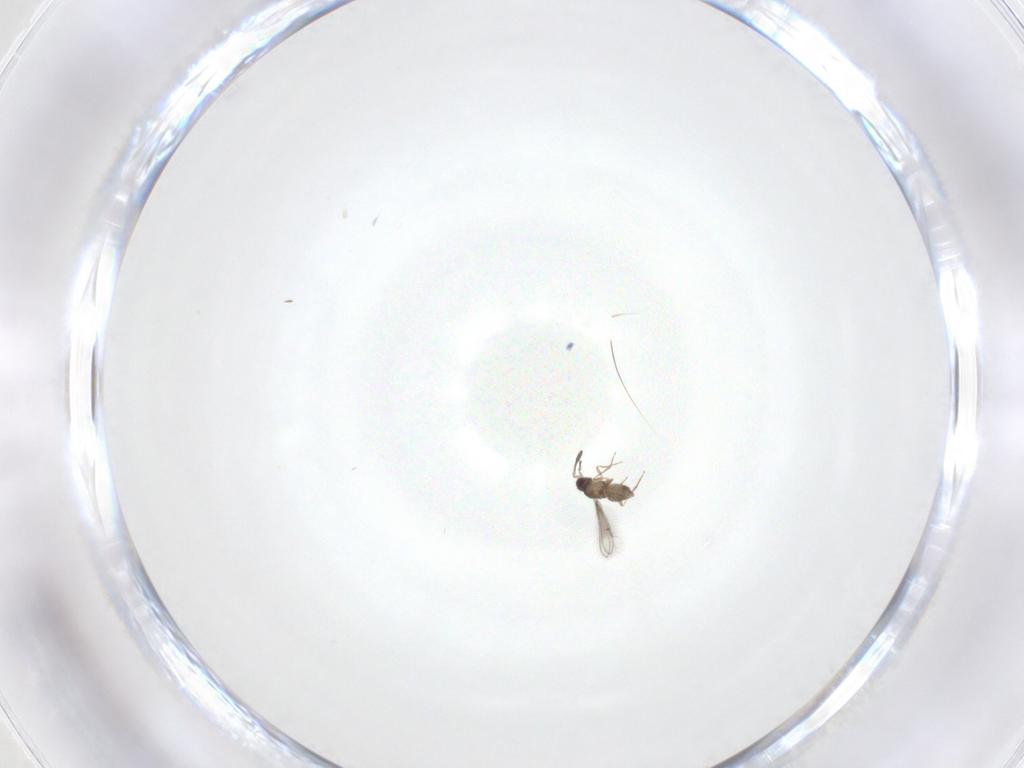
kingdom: Animalia
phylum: Arthropoda
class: Insecta
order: Hymenoptera
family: Mymaridae
